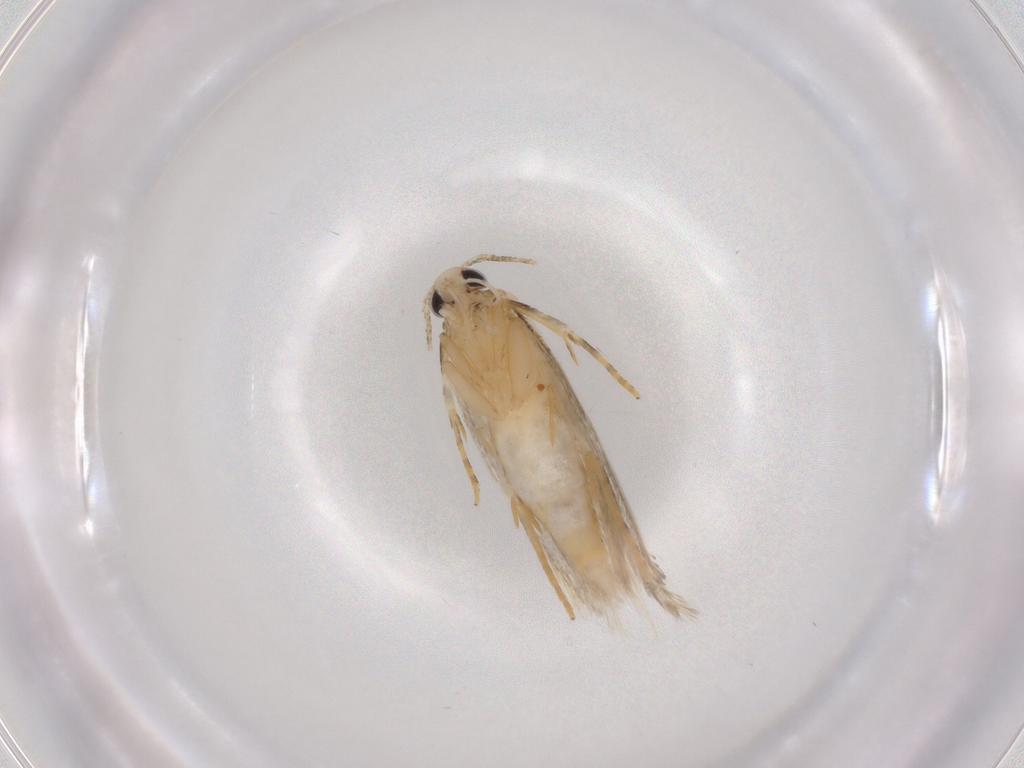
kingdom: Animalia
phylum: Arthropoda
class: Insecta
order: Lepidoptera
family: Autostichidae
